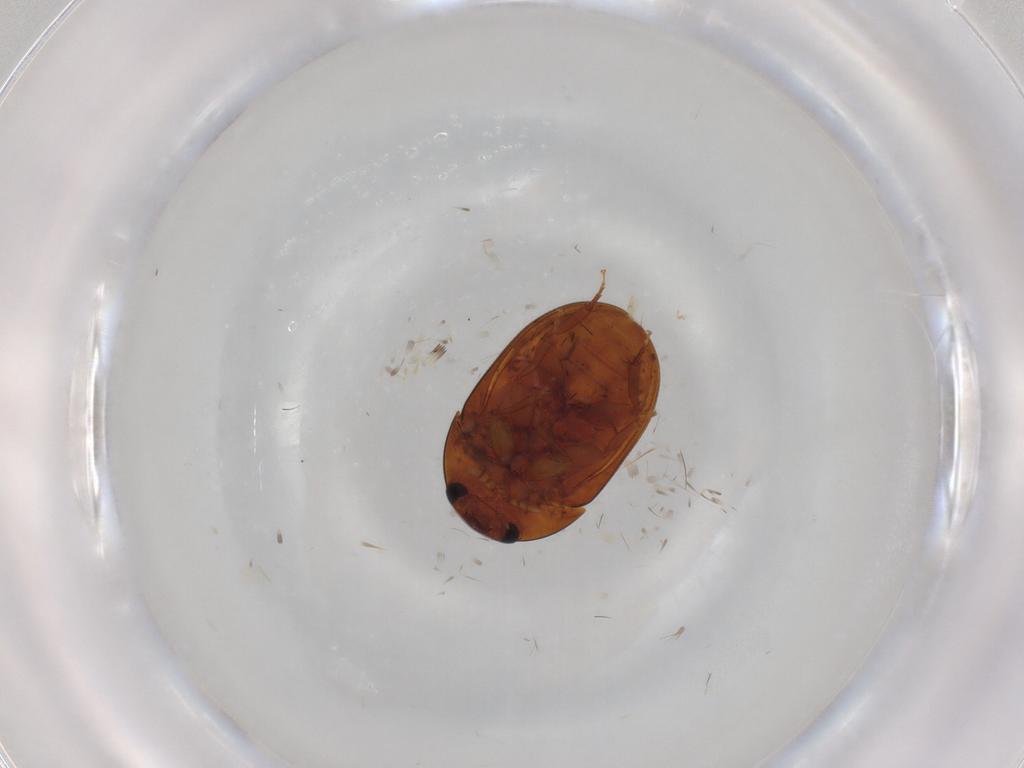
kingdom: Animalia
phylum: Arthropoda
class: Insecta
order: Coleoptera
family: Phalacridae
